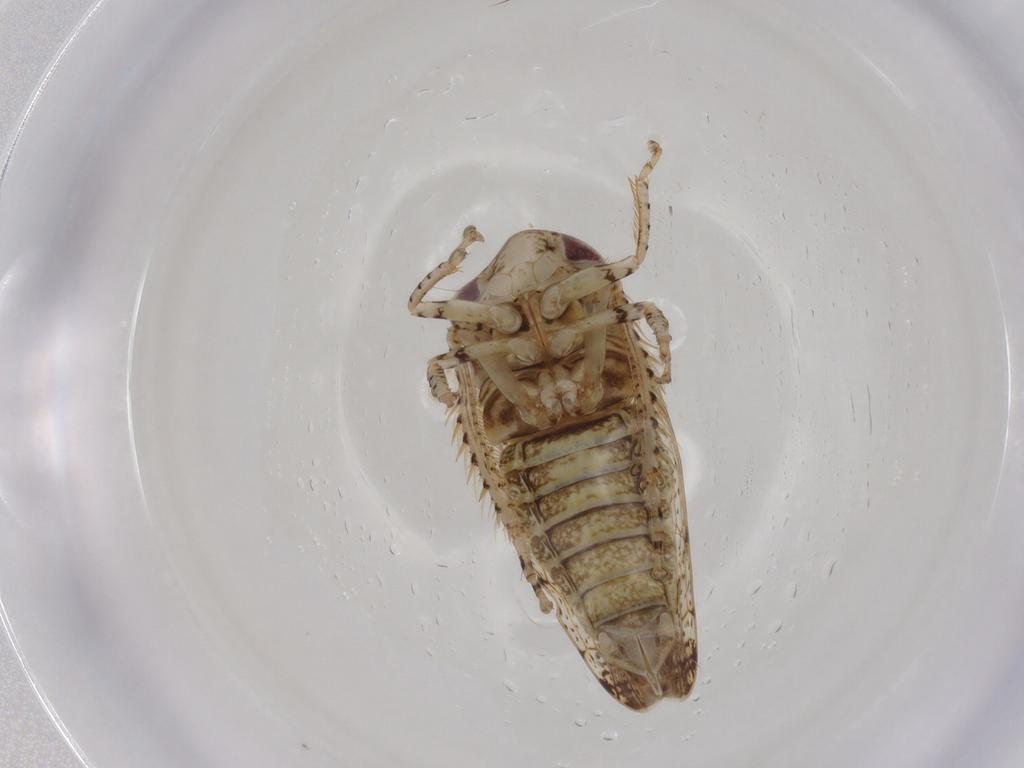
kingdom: Animalia
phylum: Arthropoda
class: Insecta
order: Hemiptera
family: Cicadellidae
